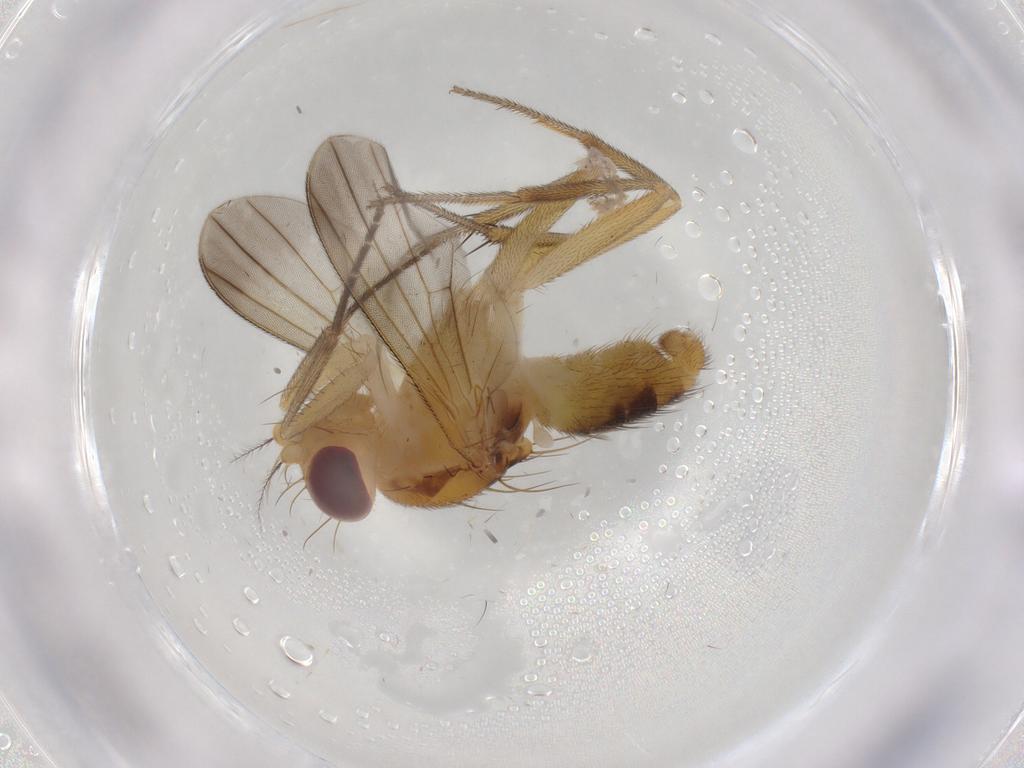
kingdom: Animalia
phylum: Arthropoda
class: Insecta
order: Diptera
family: Clusiidae
